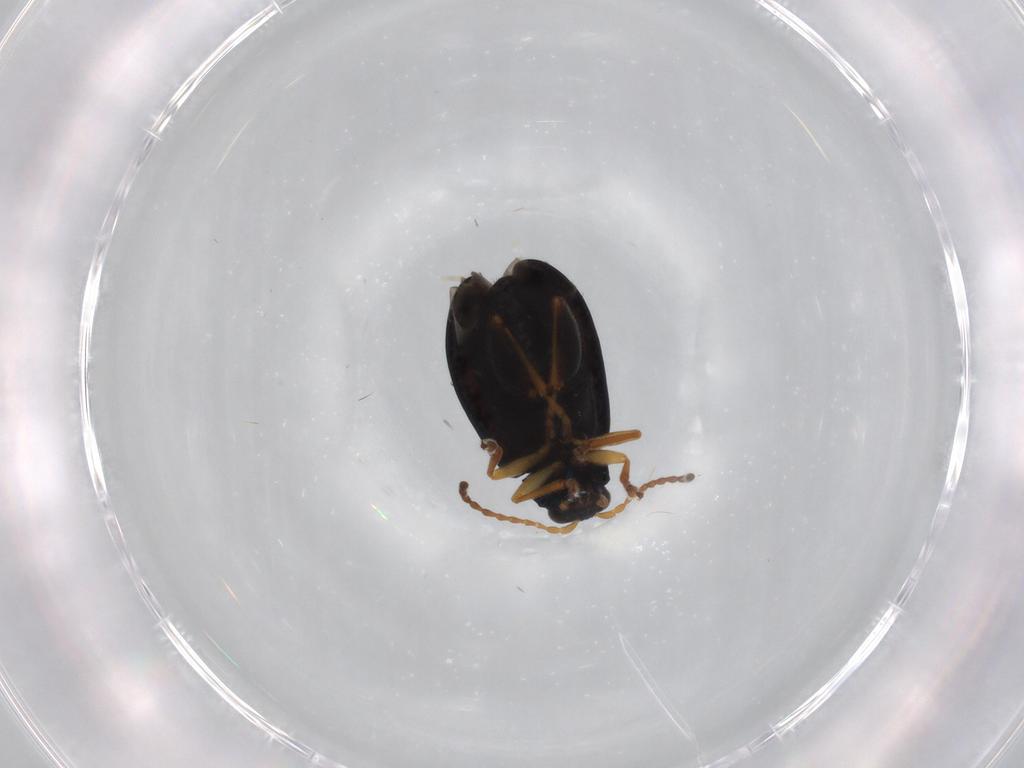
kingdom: Animalia
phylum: Arthropoda
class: Insecta
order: Coleoptera
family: Chrysomelidae
